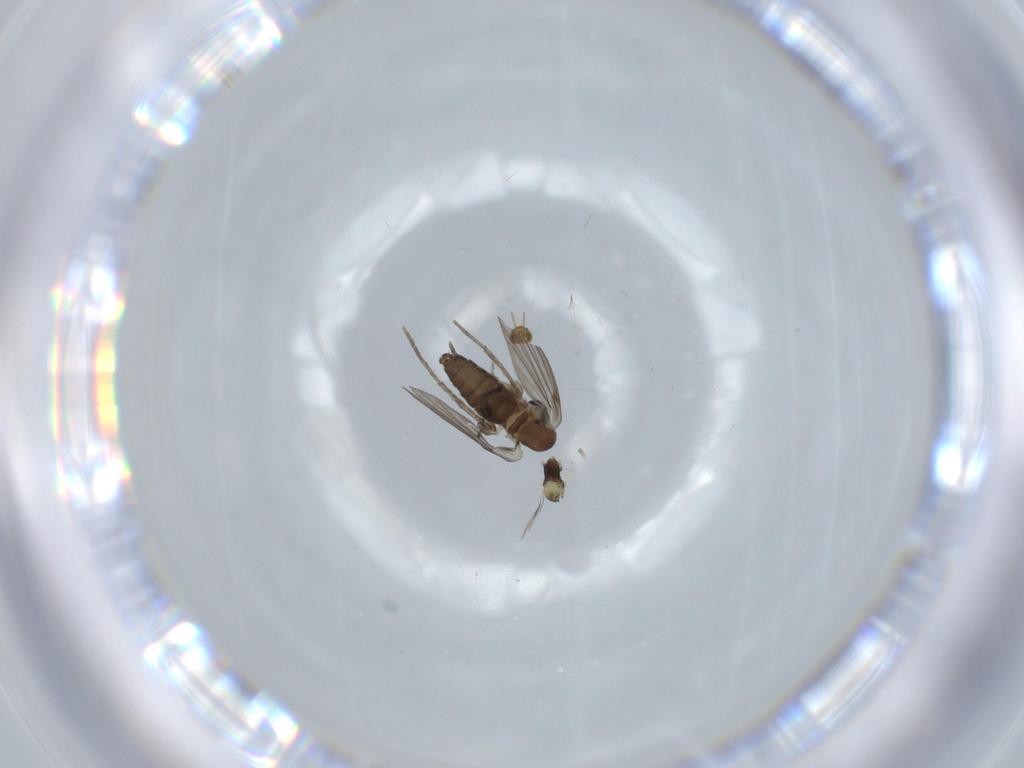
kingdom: Animalia
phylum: Arthropoda
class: Insecta
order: Diptera
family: Psychodidae
